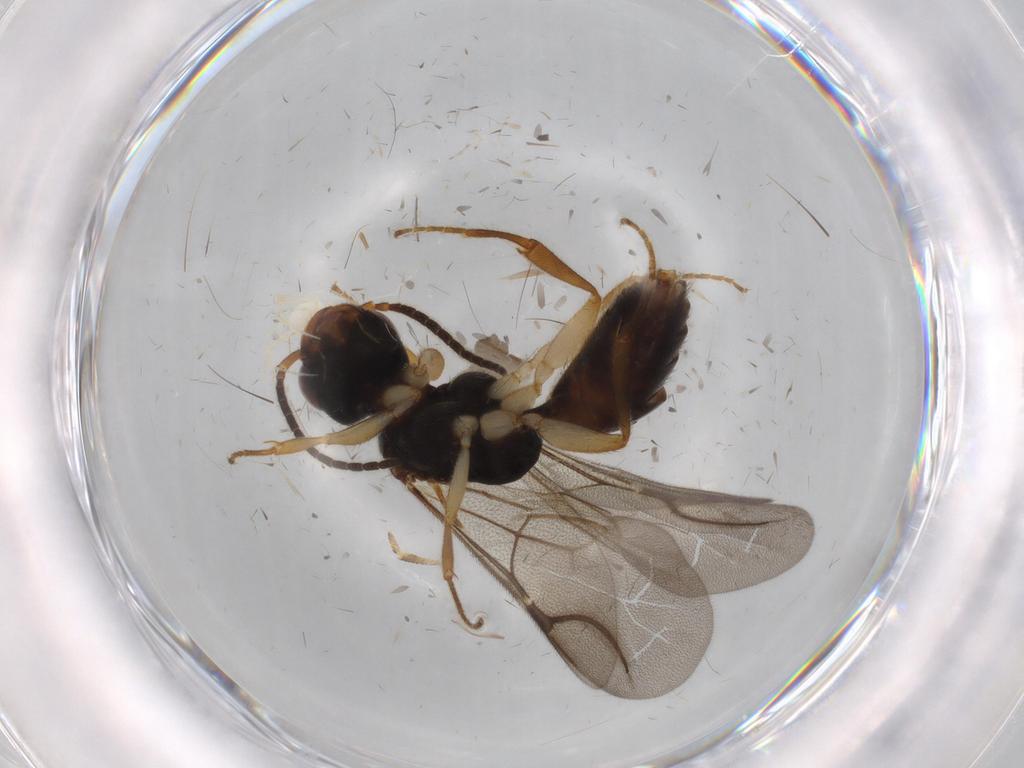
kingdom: Animalia
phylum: Arthropoda
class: Insecta
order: Hymenoptera
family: Bethylidae
